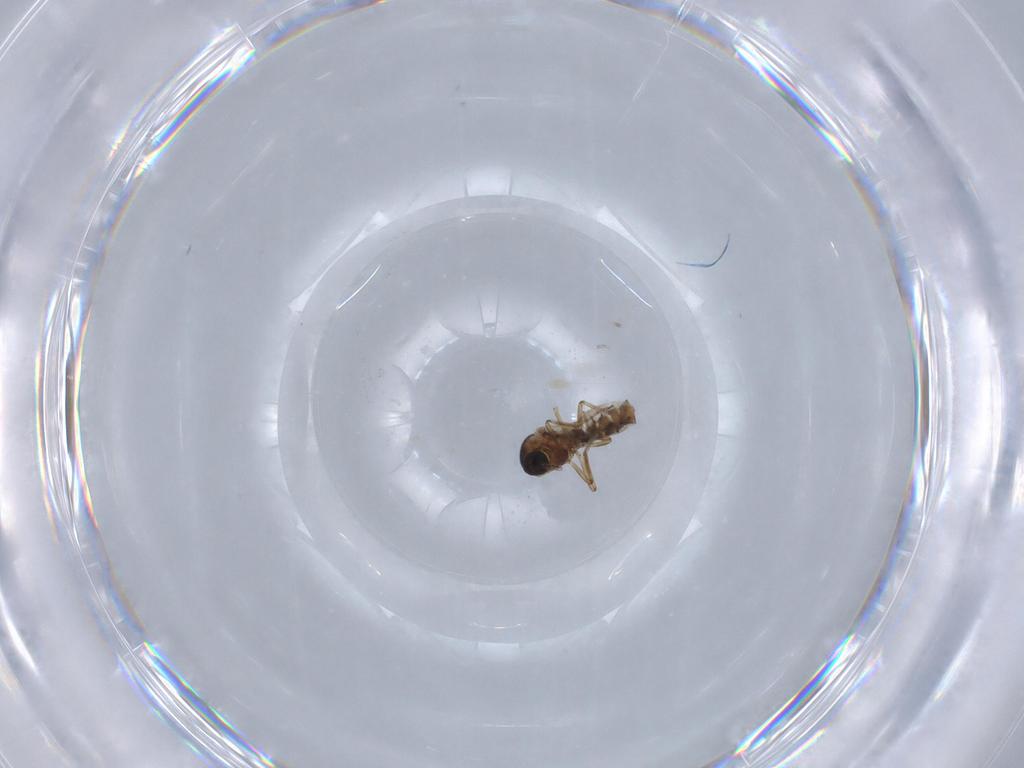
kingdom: Animalia
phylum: Arthropoda
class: Insecta
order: Diptera
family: Ceratopogonidae
